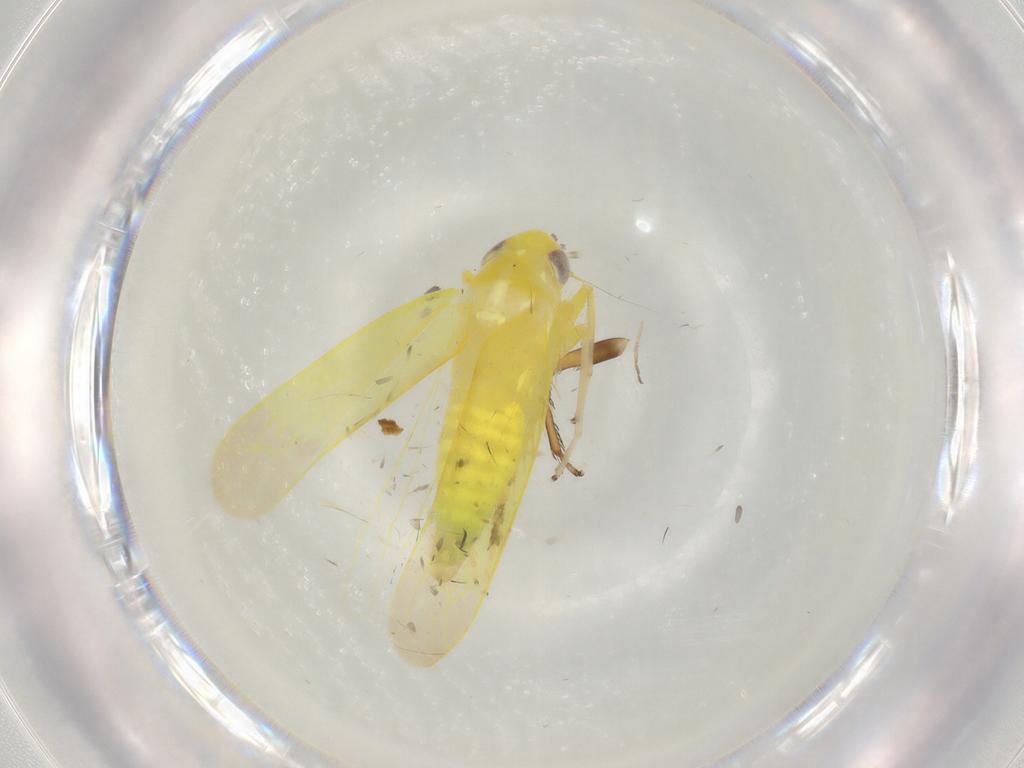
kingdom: Animalia
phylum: Arthropoda
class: Insecta
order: Hemiptera
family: Cicadellidae
